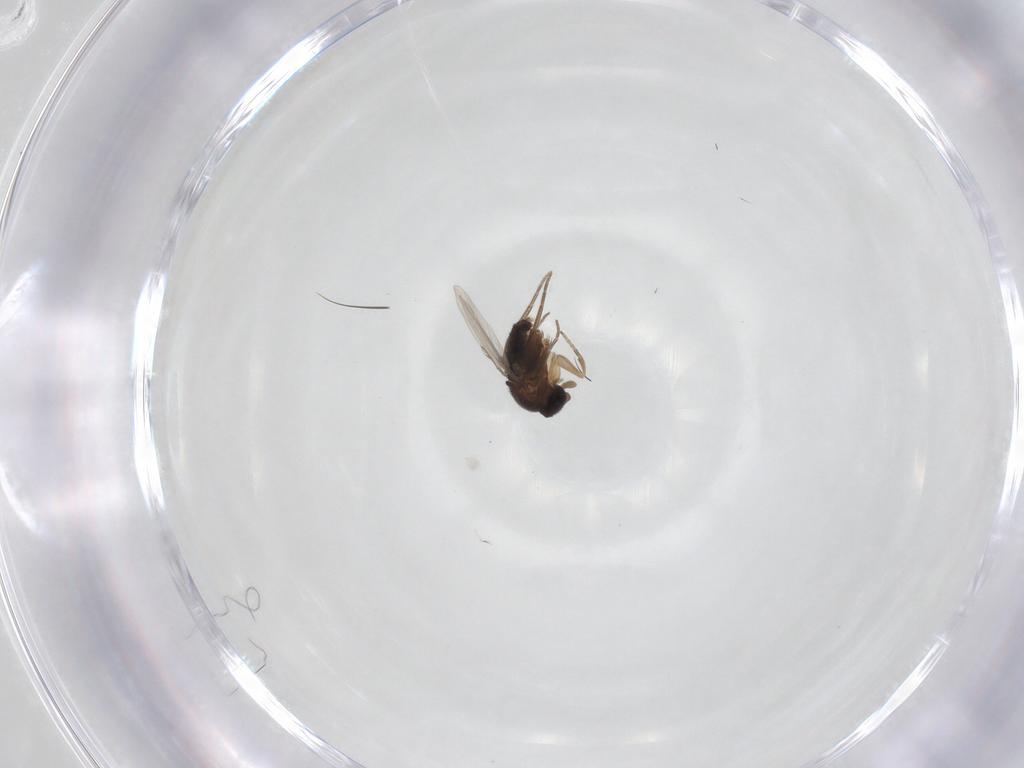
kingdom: Animalia
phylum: Arthropoda
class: Insecta
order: Diptera
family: Phoridae
